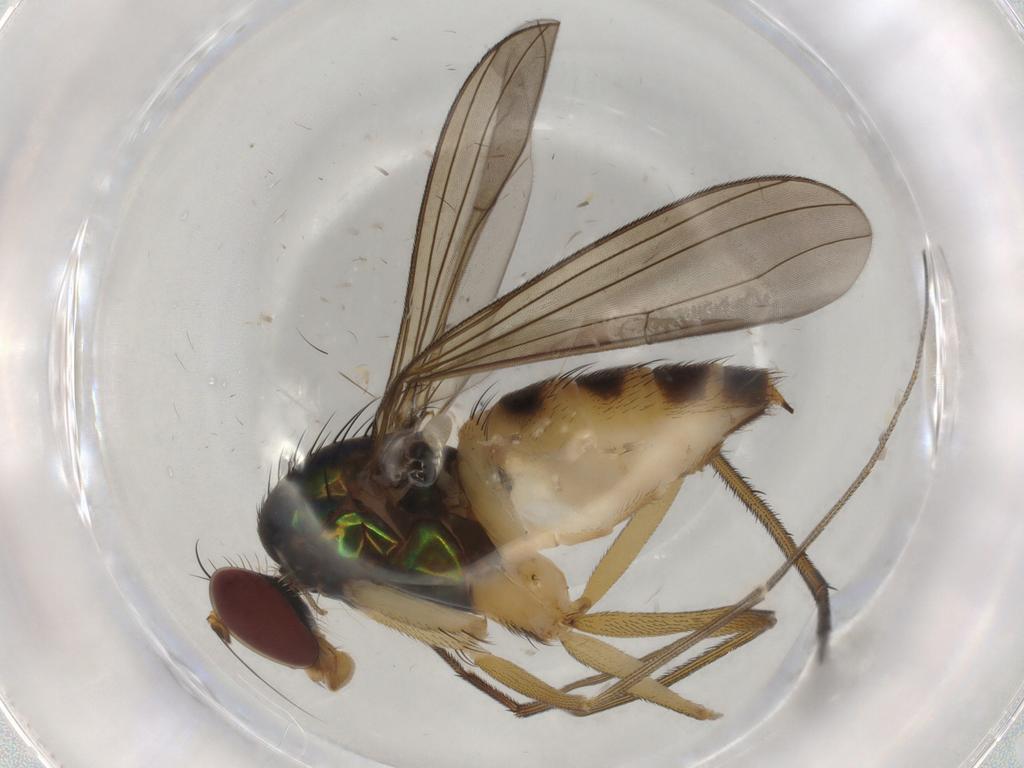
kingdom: Animalia
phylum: Arthropoda
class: Insecta
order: Diptera
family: Dolichopodidae
